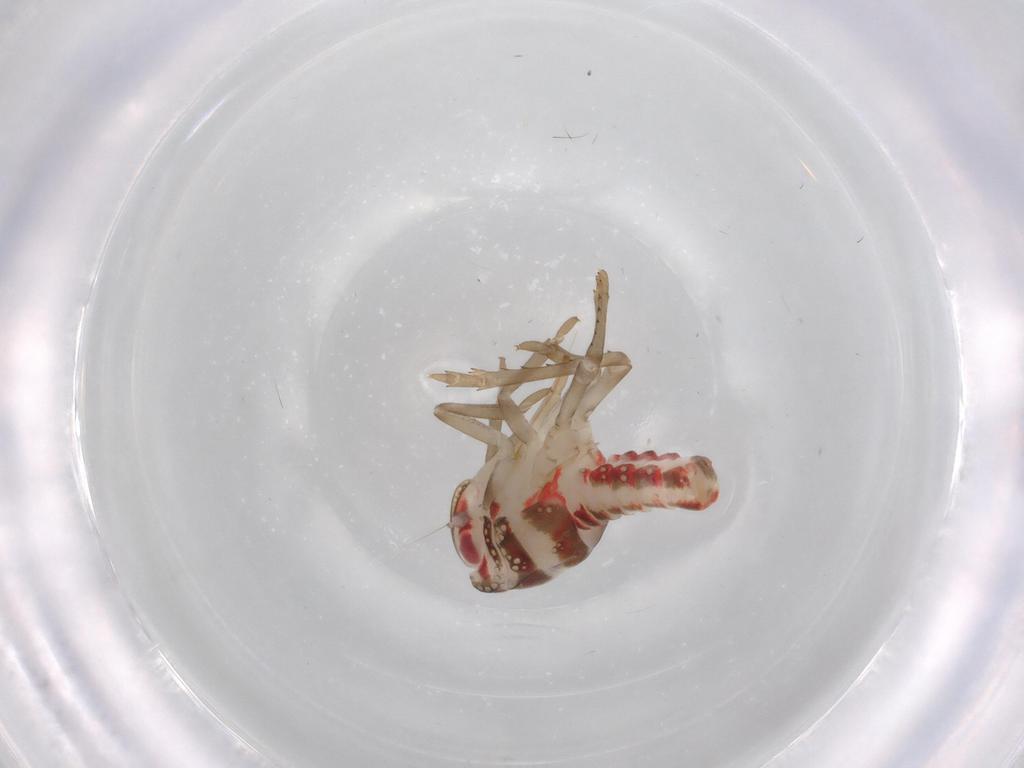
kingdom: Animalia
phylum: Arthropoda
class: Insecta
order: Hemiptera
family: Nogodinidae
